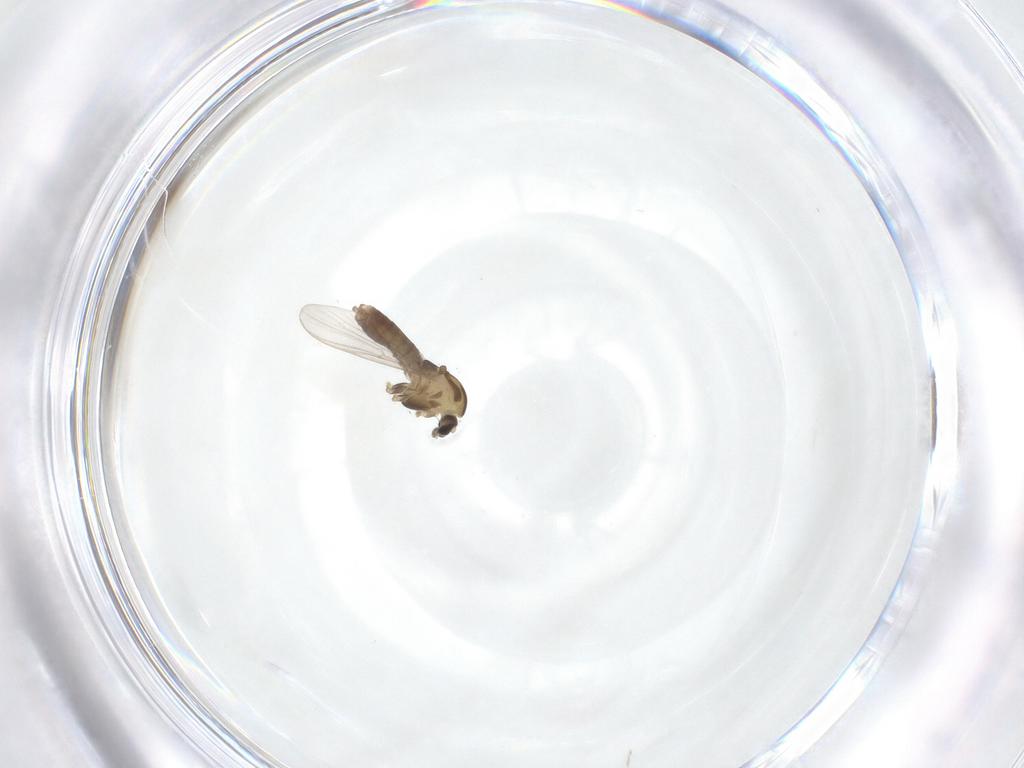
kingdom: Animalia
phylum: Arthropoda
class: Insecta
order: Diptera
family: Chironomidae
